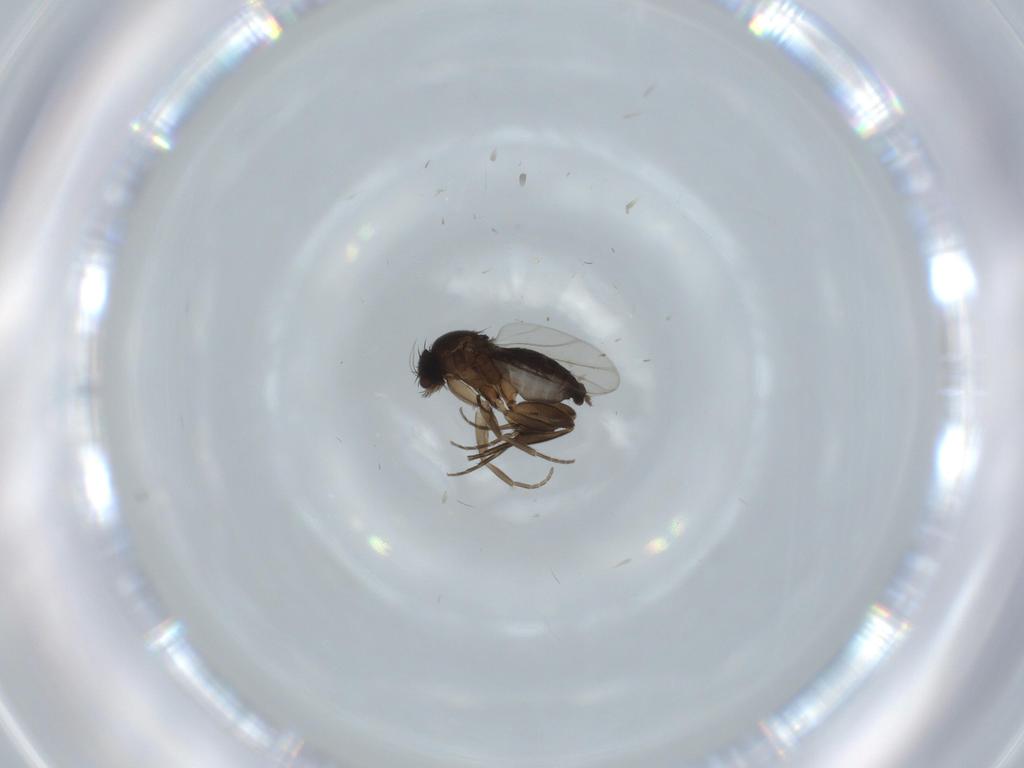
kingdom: Animalia
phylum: Arthropoda
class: Insecta
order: Diptera
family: Phoridae
